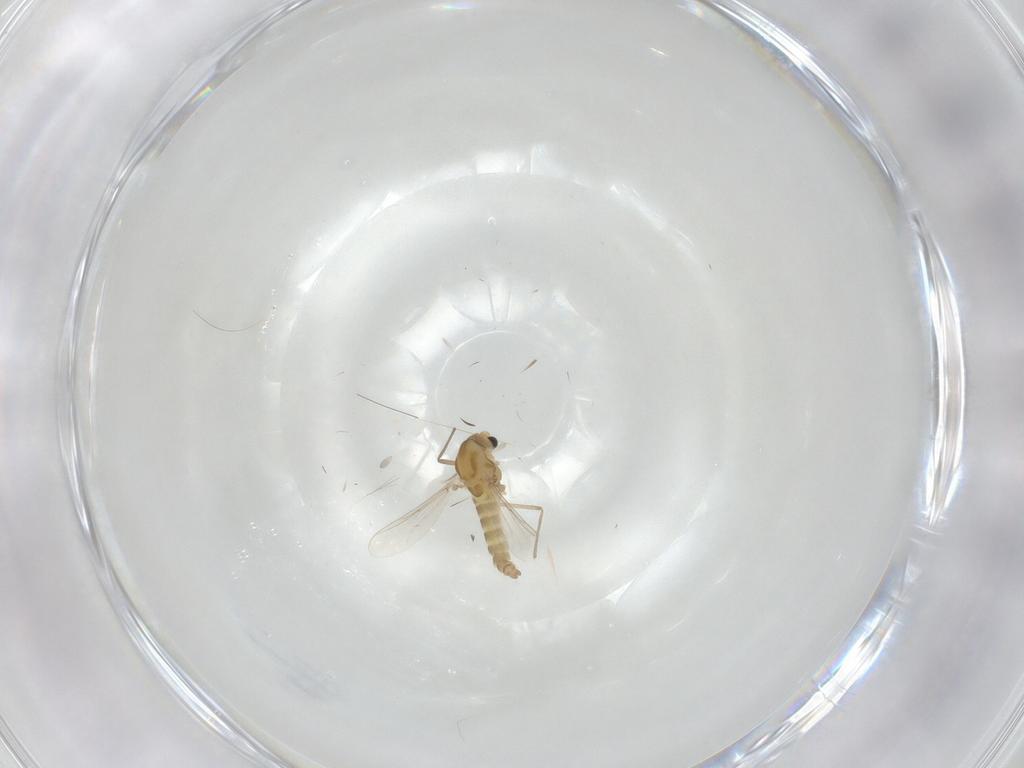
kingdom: Animalia
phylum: Arthropoda
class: Insecta
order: Diptera
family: Chironomidae
